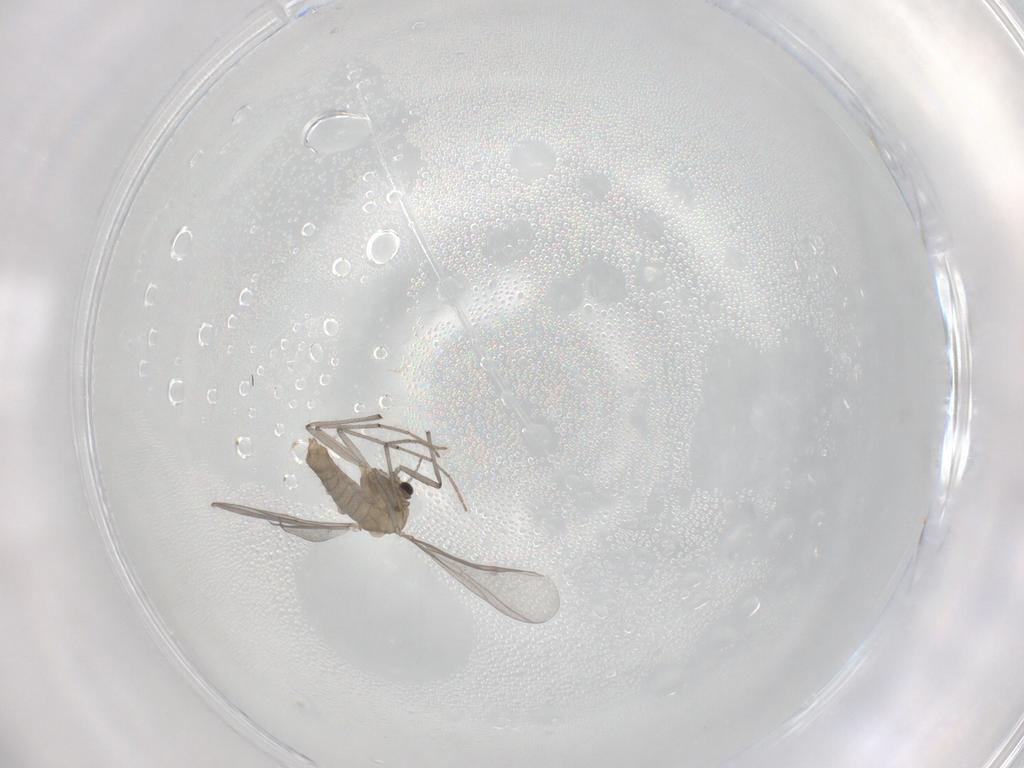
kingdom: Animalia
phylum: Arthropoda
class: Insecta
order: Diptera
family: Chironomidae
